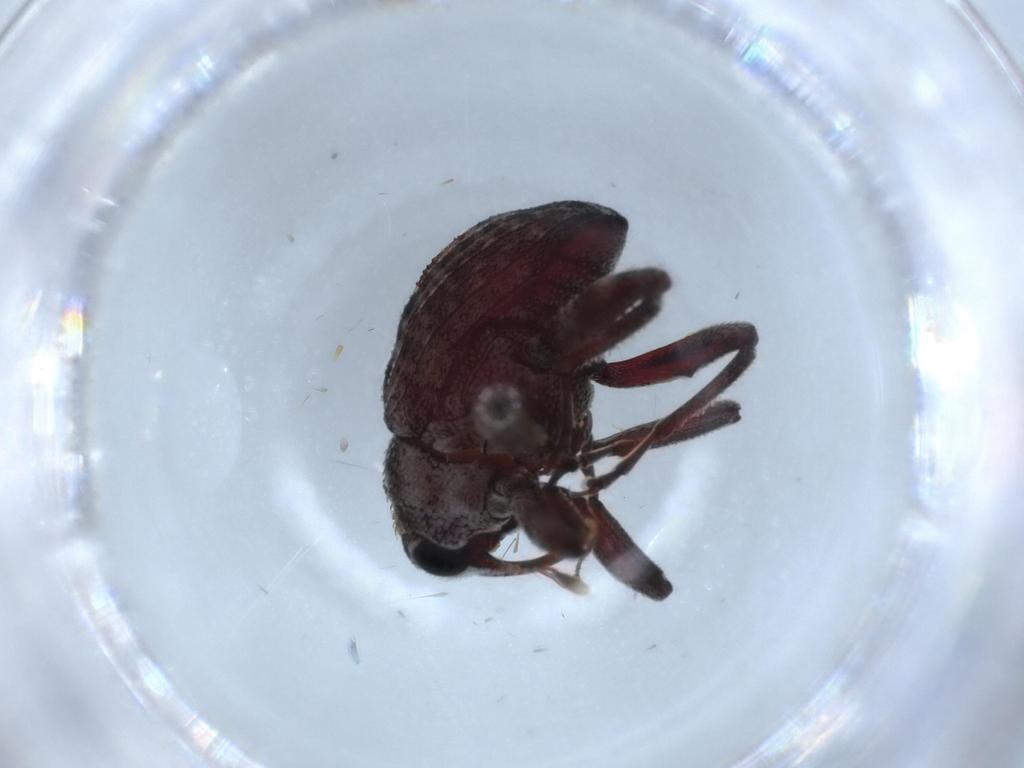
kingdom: Animalia
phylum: Arthropoda
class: Insecta
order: Coleoptera
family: Curculionidae
